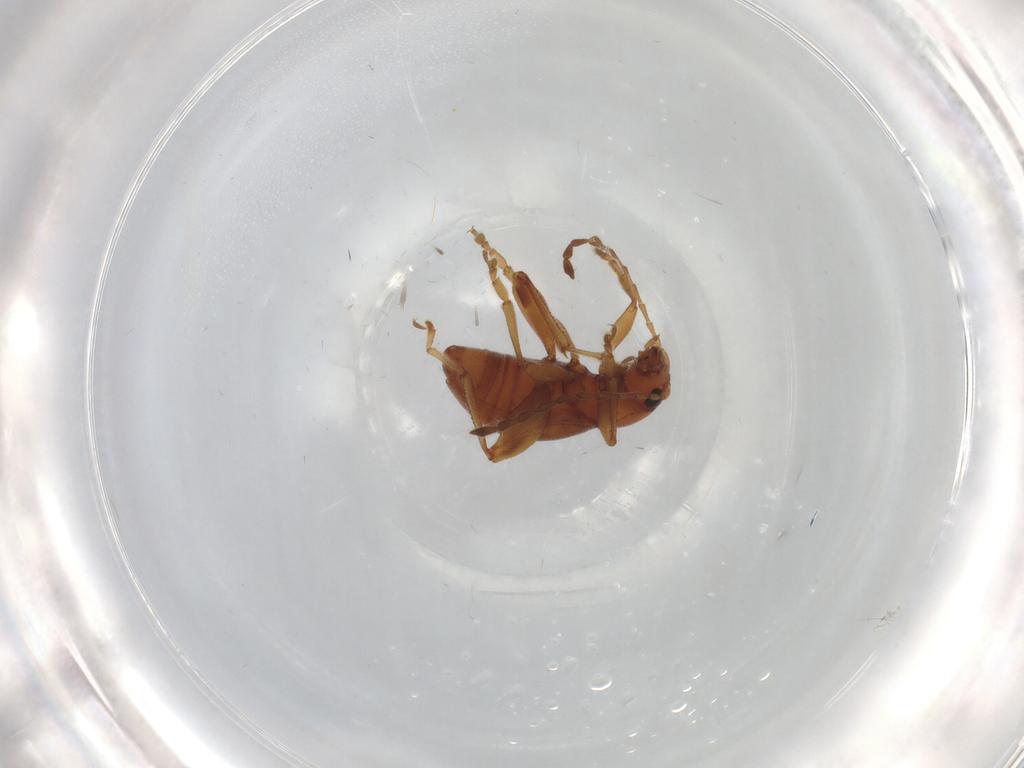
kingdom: Animalia
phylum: Arthropoda
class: Insecta
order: Coleoptera
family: Chrysomelidae
